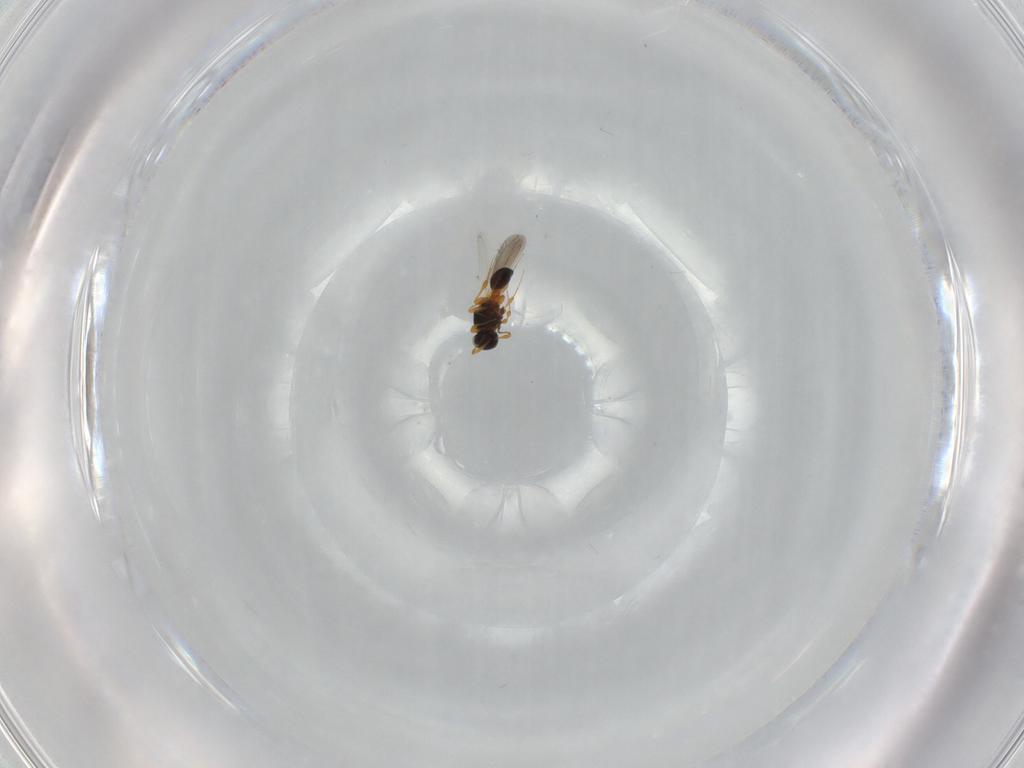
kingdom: Animalia
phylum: Arthropoda
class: Insecta
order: Hymenoptera
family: Platygastridae
